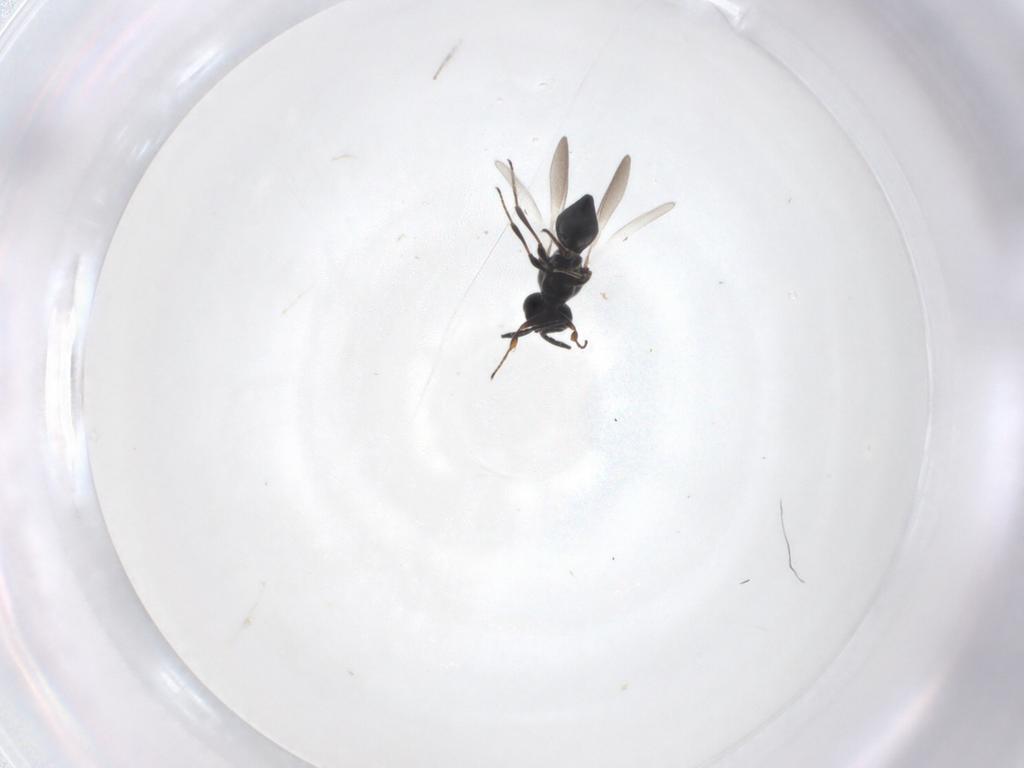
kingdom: Animalia
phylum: Arthropoda
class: Insecta
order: Hymenoptera
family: Platygastridae
